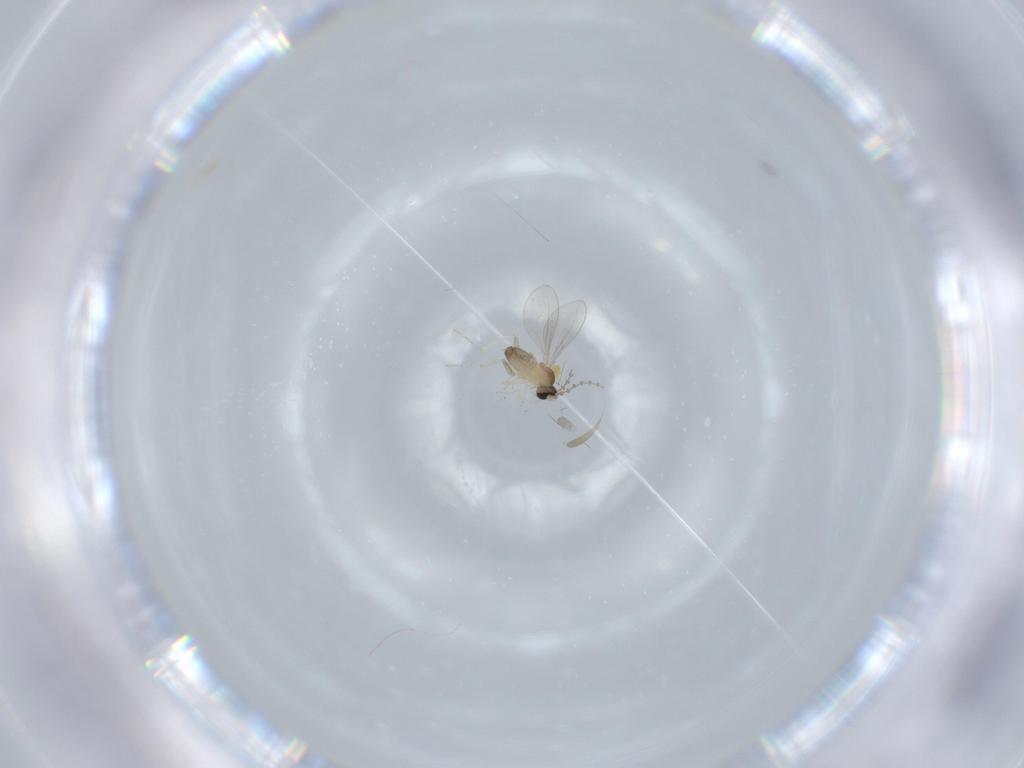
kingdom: Animalia
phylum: Arthropoda
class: Insecta
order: Diptera
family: Cecidomyiidae
